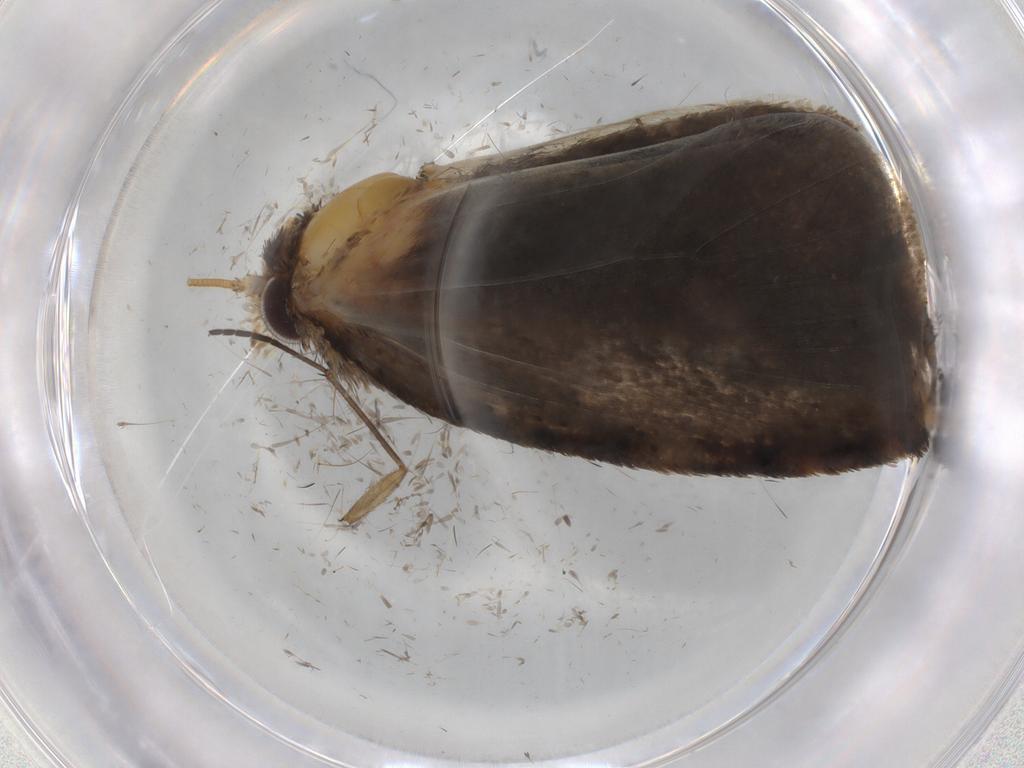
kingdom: Animalia
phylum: Arthropoda
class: Insecta
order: Lepidoptera
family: Tineidae
